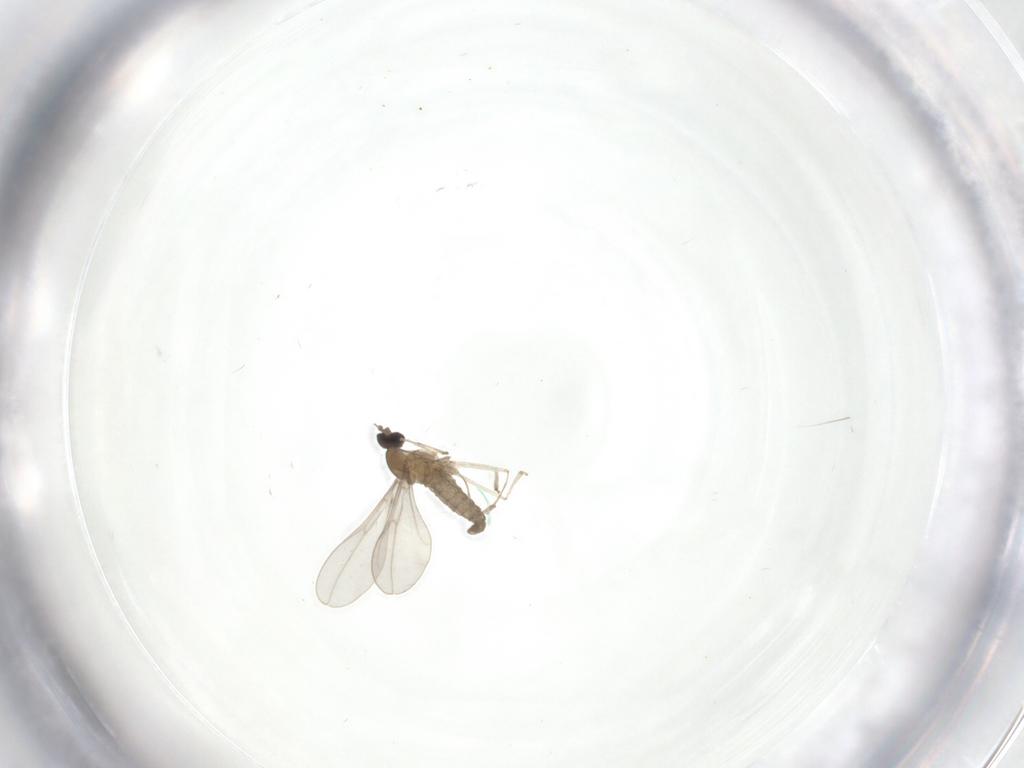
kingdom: Animalia
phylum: Arthropoda
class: Insecta
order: Diptera
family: Cecidomyiidae
